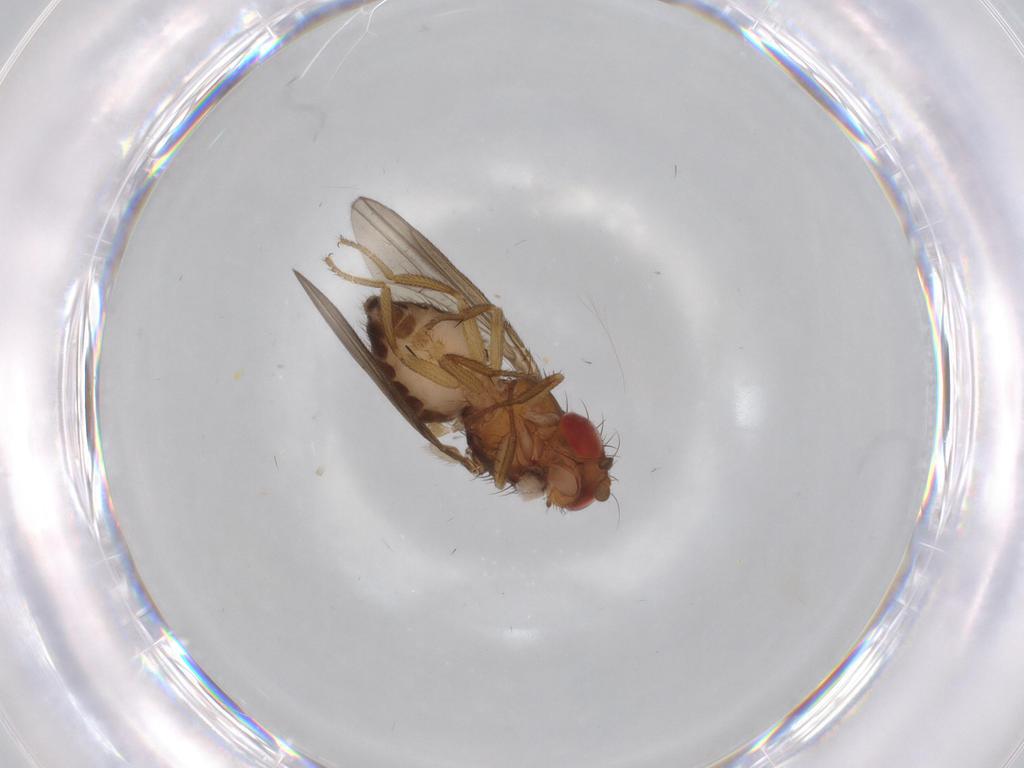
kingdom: Animalia
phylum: Arthropoda
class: Insecta
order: Diptera
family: Drosophilidae
